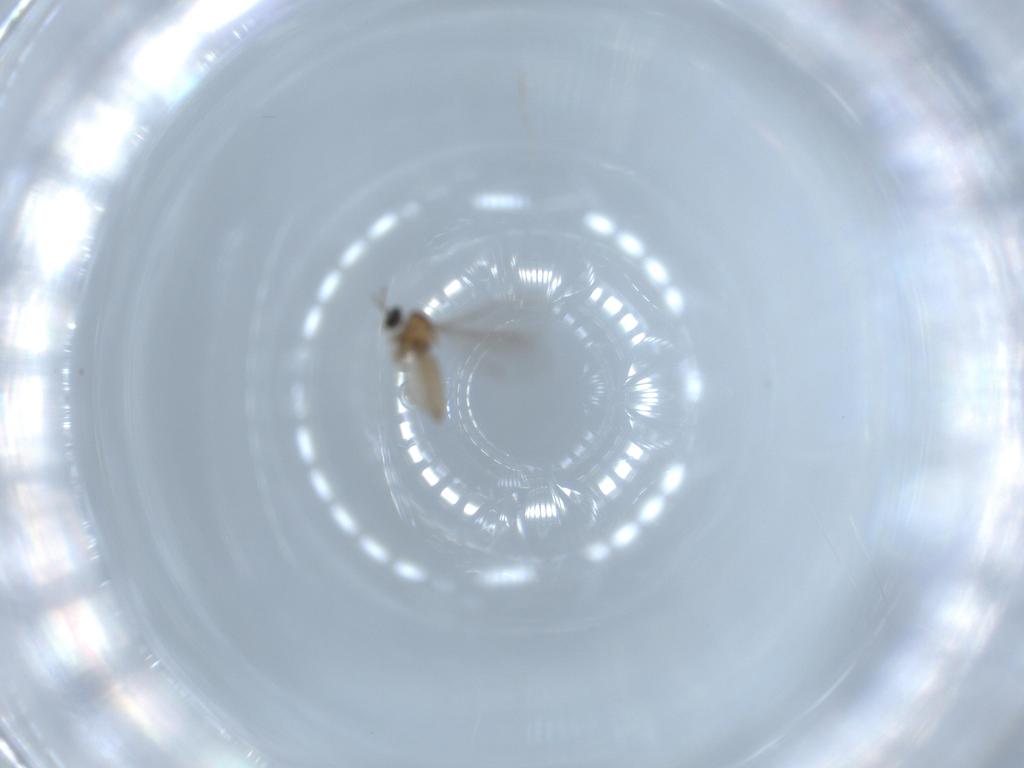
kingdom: Animalia
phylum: Arthropoda
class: Insecta
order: Diptera
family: Cecidomyiidae
